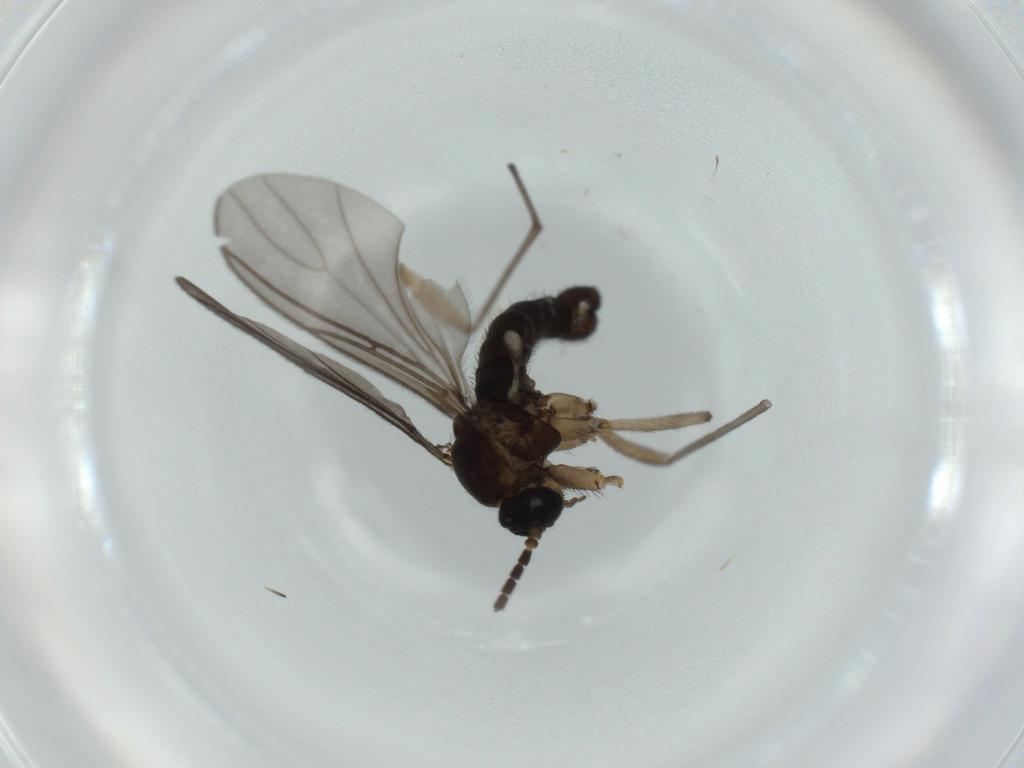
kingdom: Animalia
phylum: Arthropoda
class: Insecta
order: Diptera
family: Sciaridae
